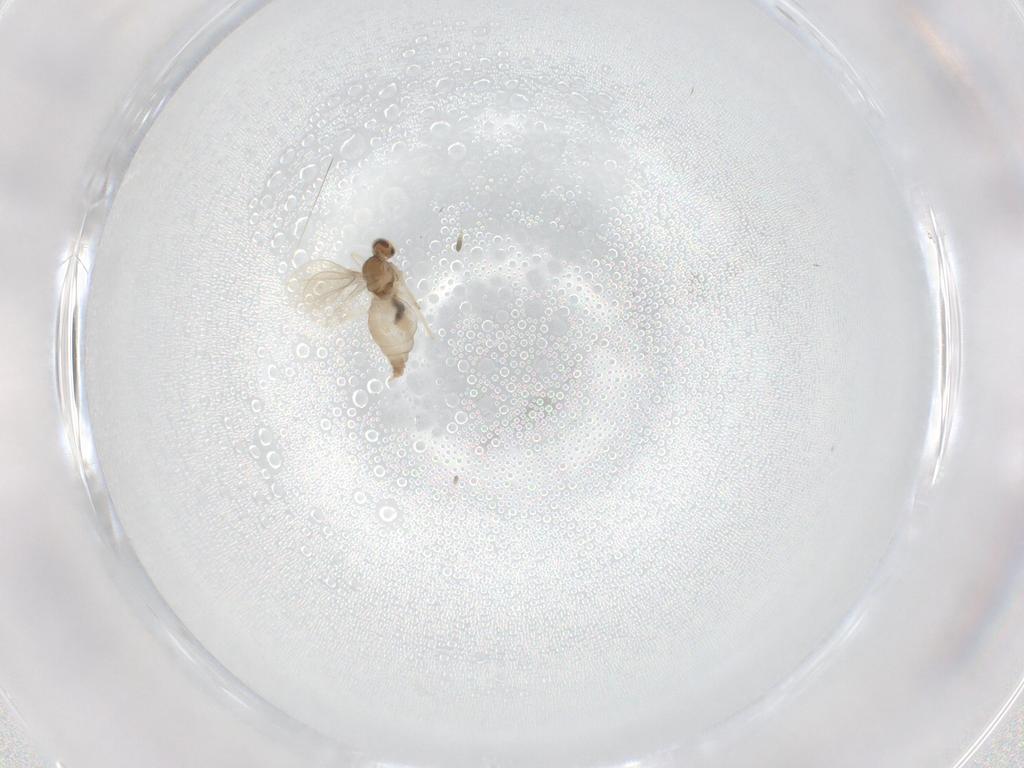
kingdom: Animalia
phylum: Arthropoda
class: Insecta
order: Diptera
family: Cecidomyiidae
